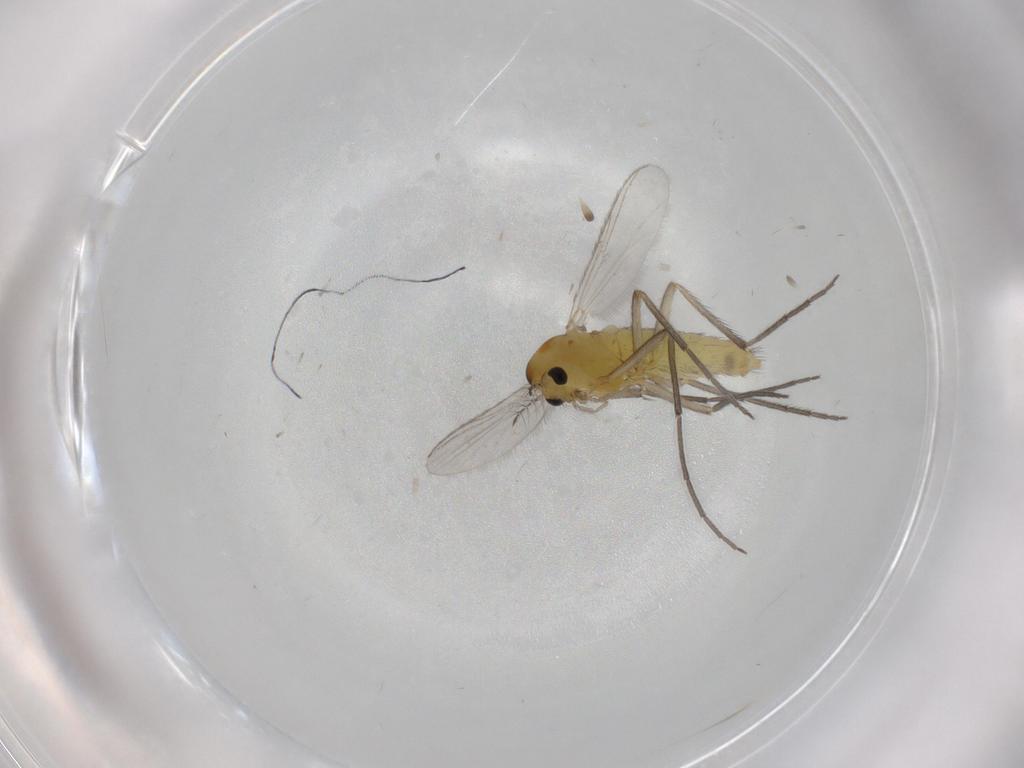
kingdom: Animalia
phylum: Arthropoda
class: Insecta
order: Diptera
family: Chironomidae
